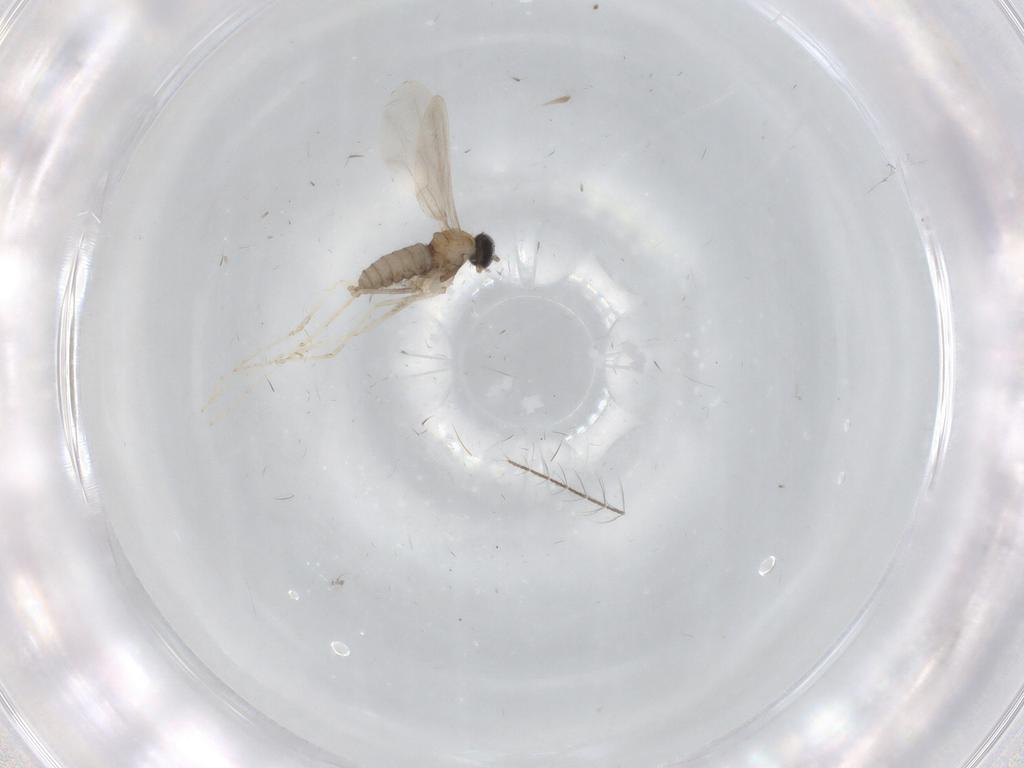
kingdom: Animalia
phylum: Arthropoda
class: Insecta
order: Diptera
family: Cecidomyiidae
